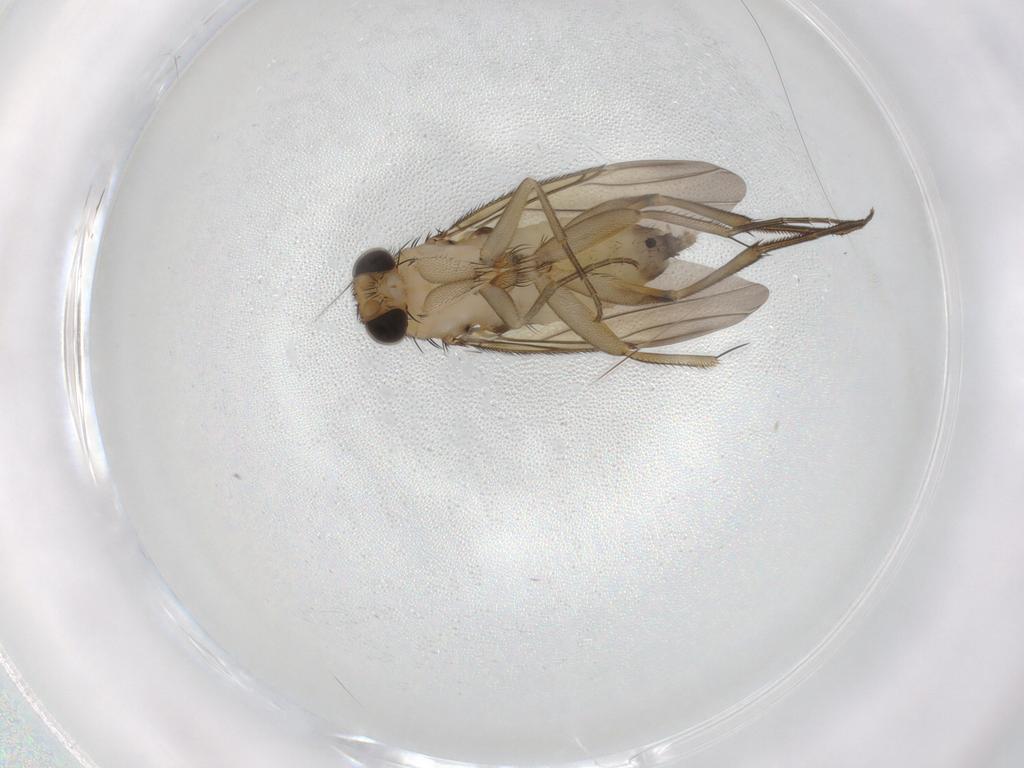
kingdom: Animalia
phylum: Arthropoda
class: Insecta
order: Diptera
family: Phoridae
